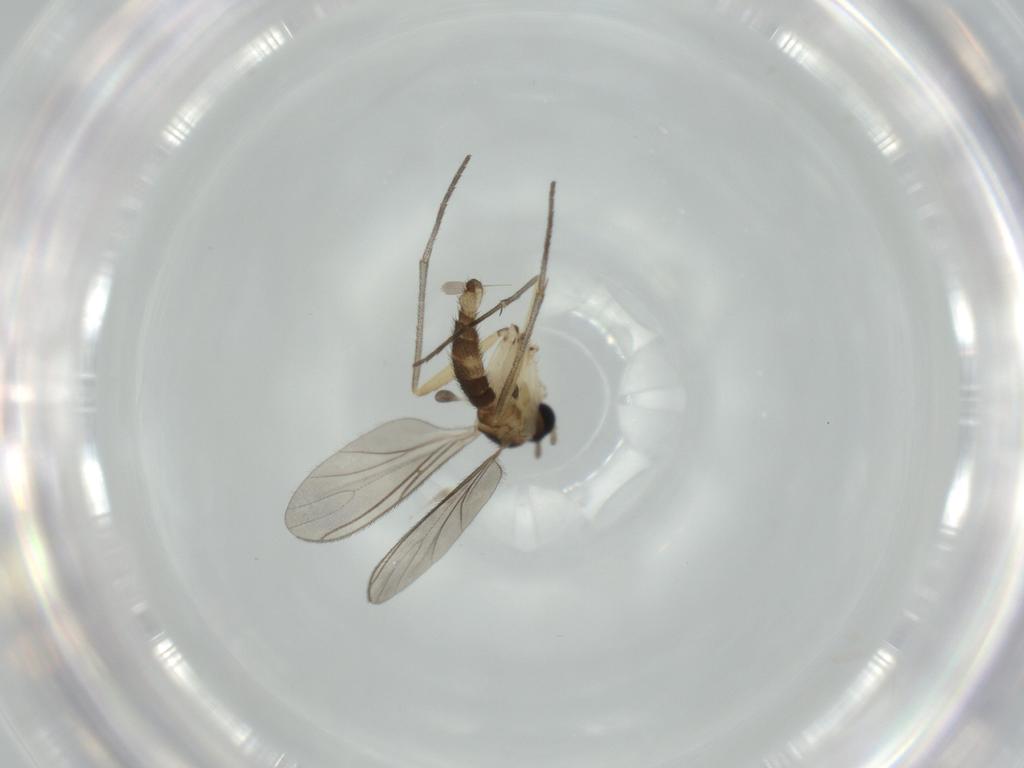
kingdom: Animalia
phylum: Arthropoda
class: Insecta
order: Diptera
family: Sciaridae
